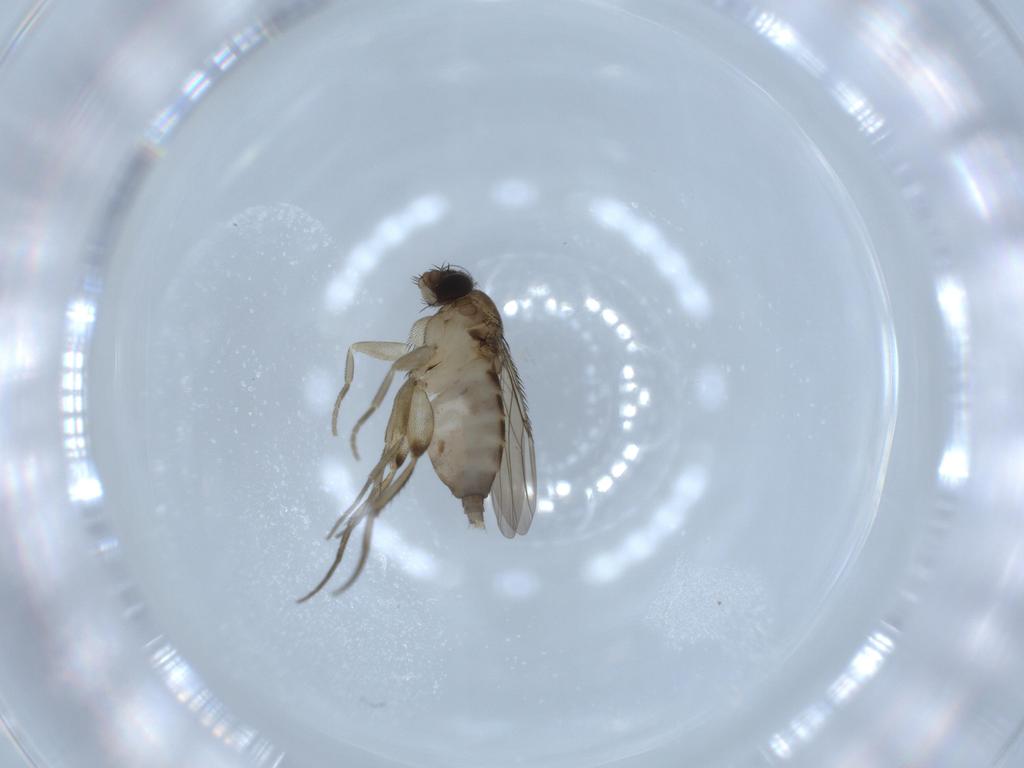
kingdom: Animalia
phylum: Arthropoda
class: Insecta
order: Diptera
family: Phoridae
